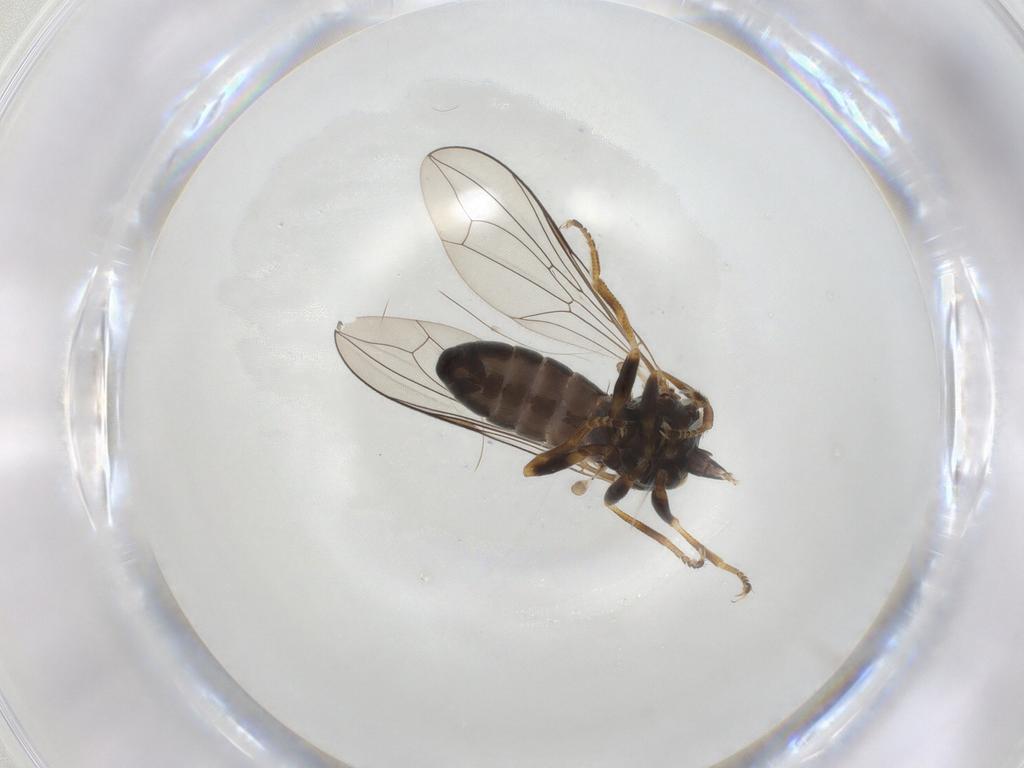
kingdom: Animalia
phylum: Arthropoda
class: Insecta
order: Diptera
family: Pipunculidae
